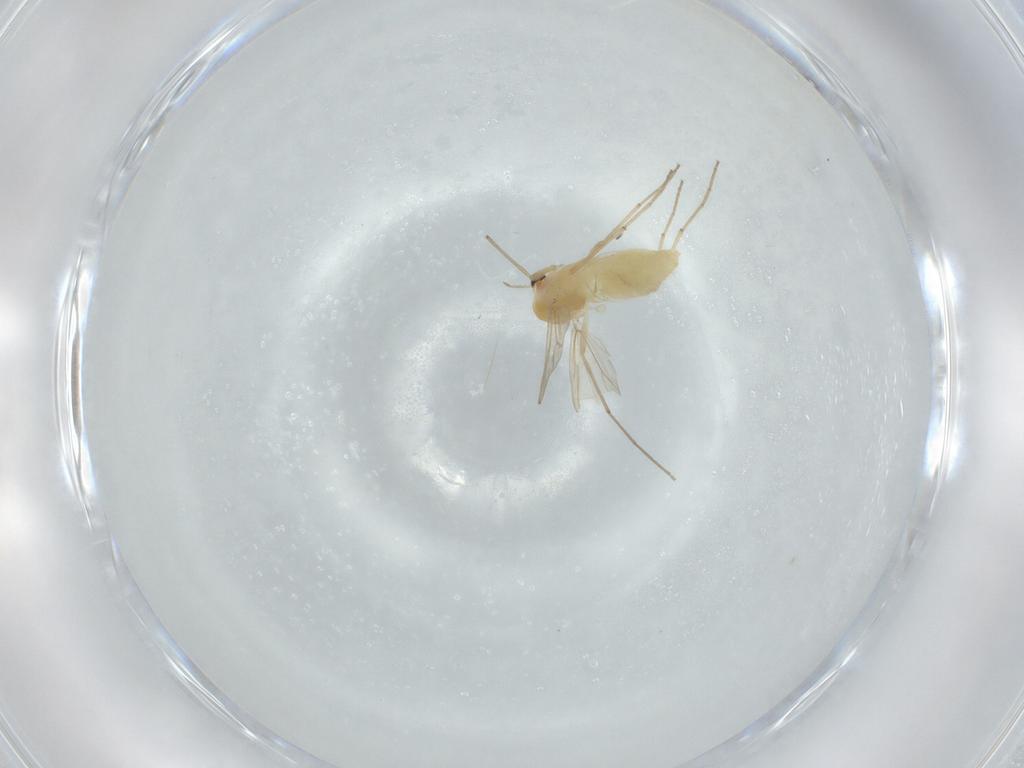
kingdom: Animalia
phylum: Arthropoda
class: Insecta
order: Diptera
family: Chironomidae
